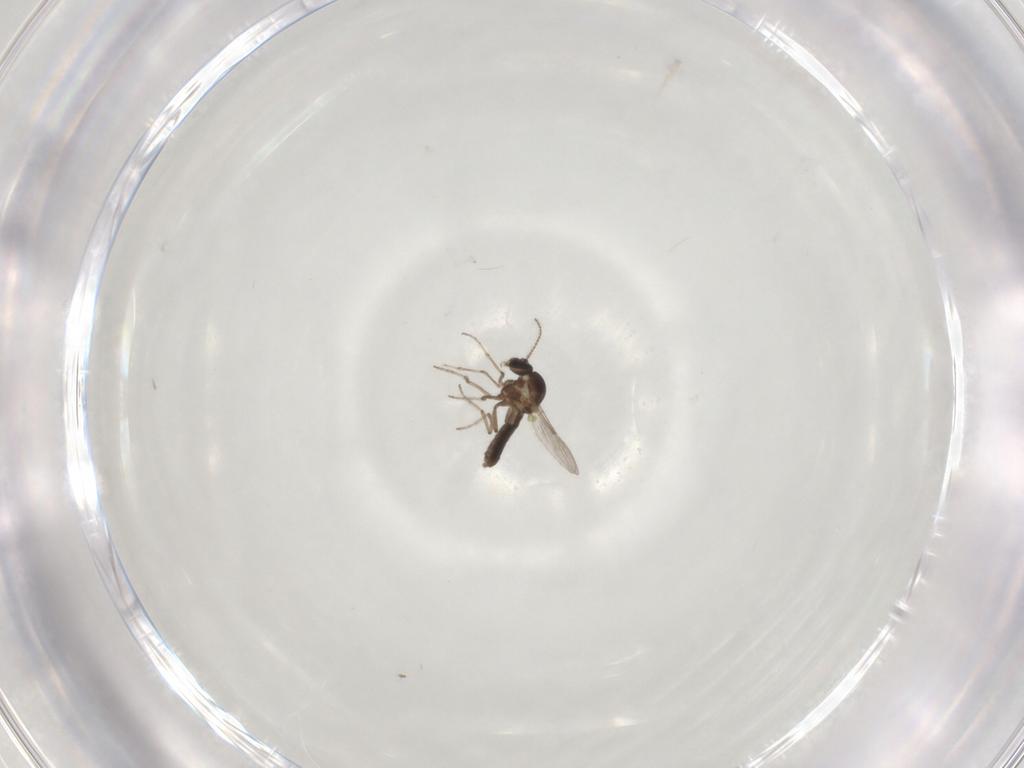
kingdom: Animalia
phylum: Arthropoda
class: Insecta
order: Diptera
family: Ceratopogonidae
